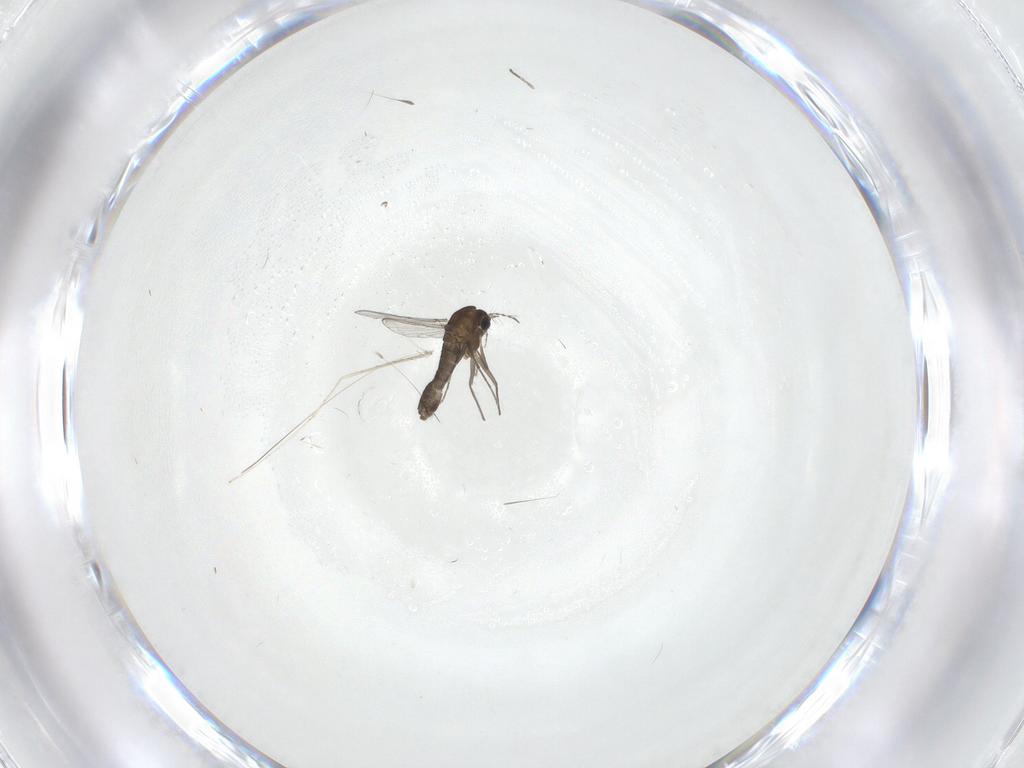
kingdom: Animalia
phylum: Arthropoda
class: Insecta
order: Diptera
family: Chironomidae
